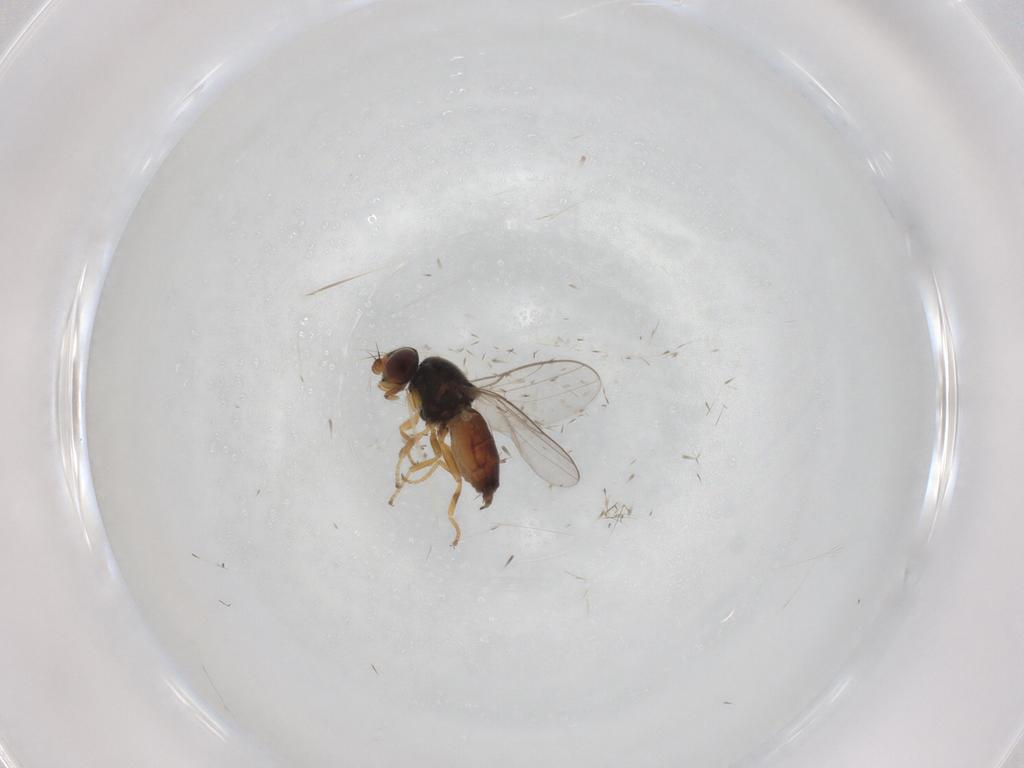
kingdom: Animalia
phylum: Arthropoda
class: Insecta
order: Diptera
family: Chloropidae
